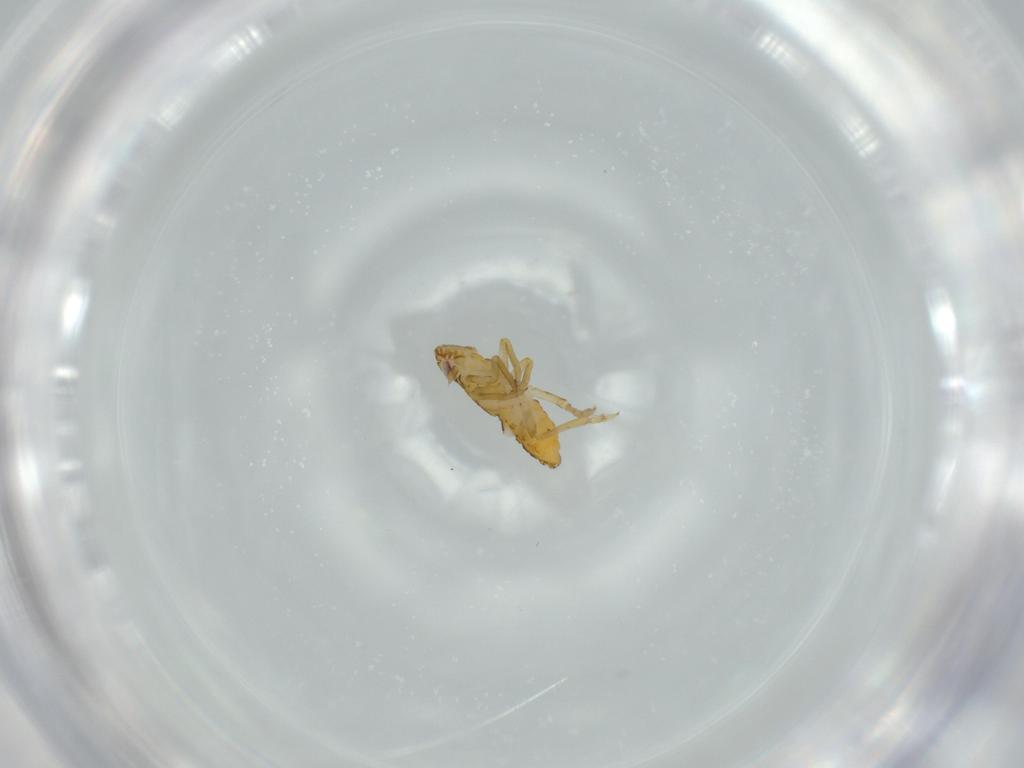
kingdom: Animalia
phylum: Arthropoda
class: Insecta
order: Hemiptera
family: Delphacidae
